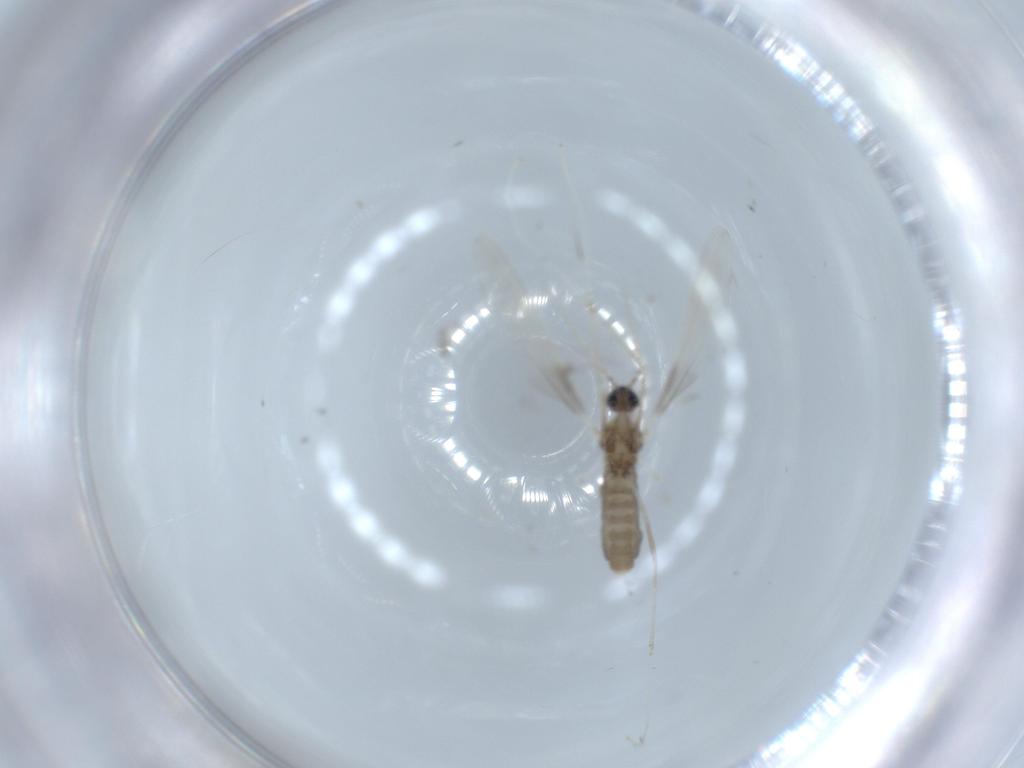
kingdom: Animalia
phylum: Arthropoda
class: Insecta
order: Diptera
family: Cecidomyiidae
